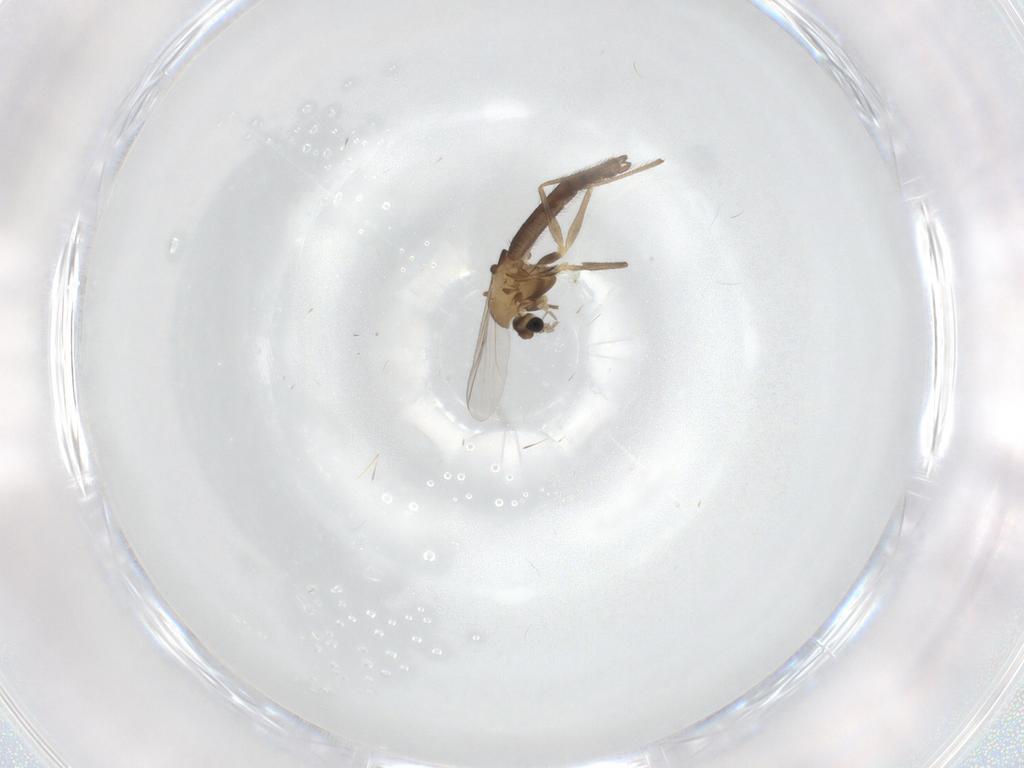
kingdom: Animalia
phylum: Arthropoda
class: Insecta
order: Diptera
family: Chironomidae
